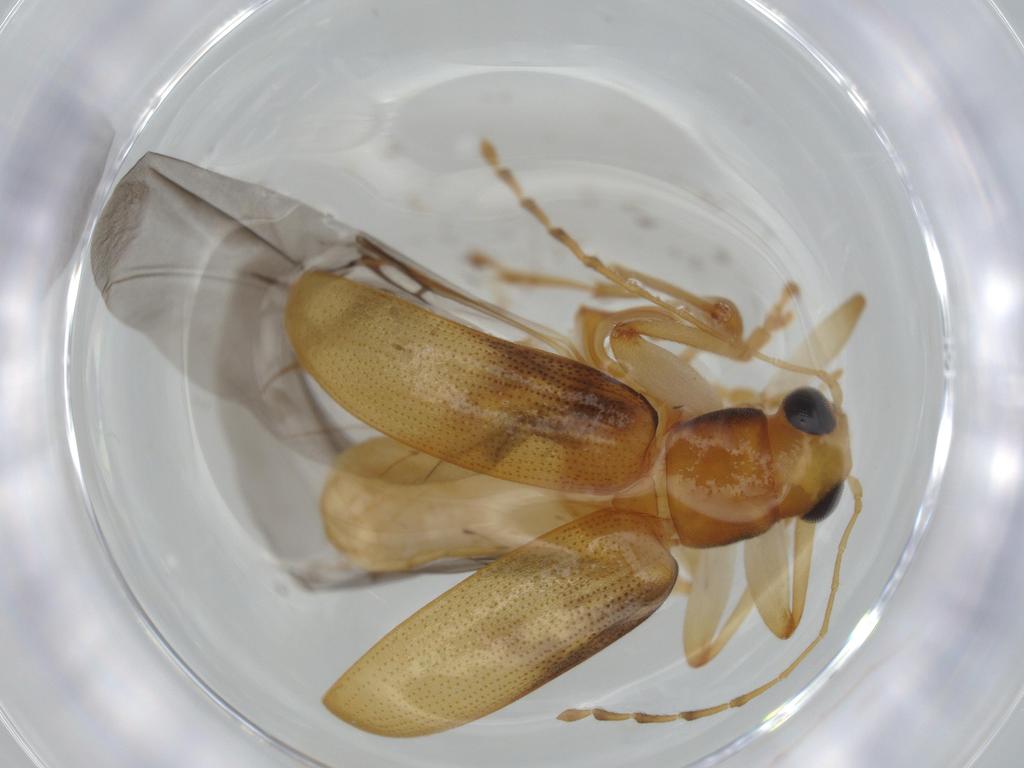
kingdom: Animalia
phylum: Arthropoda
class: Insecta
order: Coleoptera
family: Chrysomelidae
